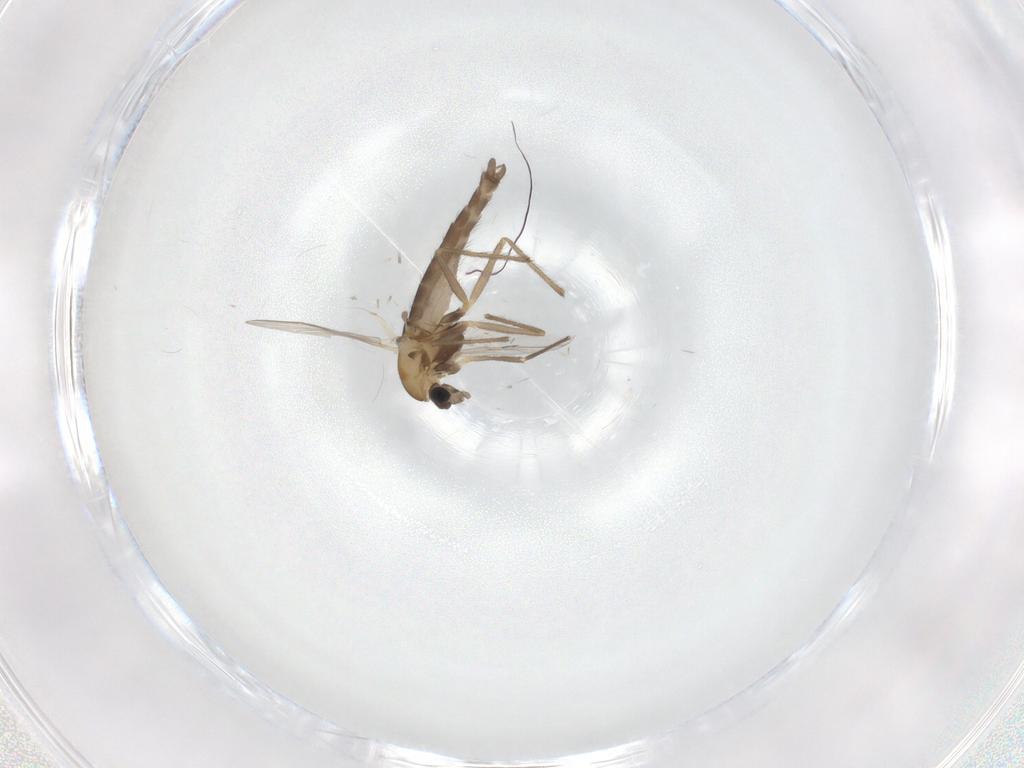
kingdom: Animalia
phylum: Arthropoda
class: Insecta
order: Diptera
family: Chironomidae
